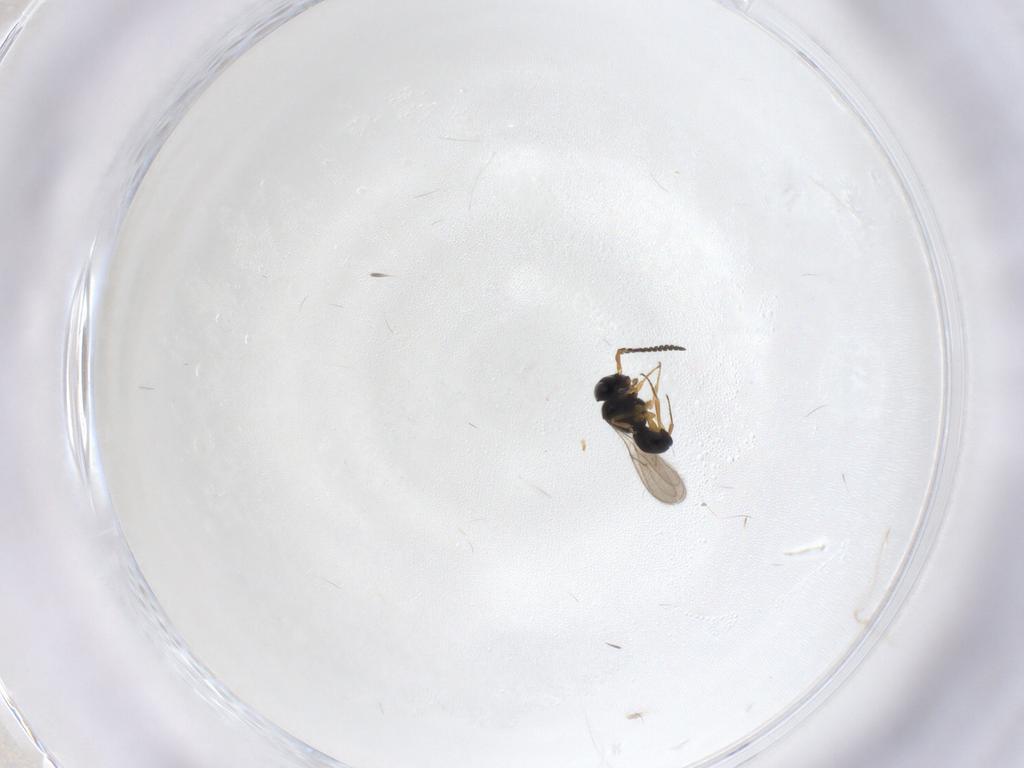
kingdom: Animalia
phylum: Arthropoda
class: Insecta
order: Hymenoptera
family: Scelionidae
